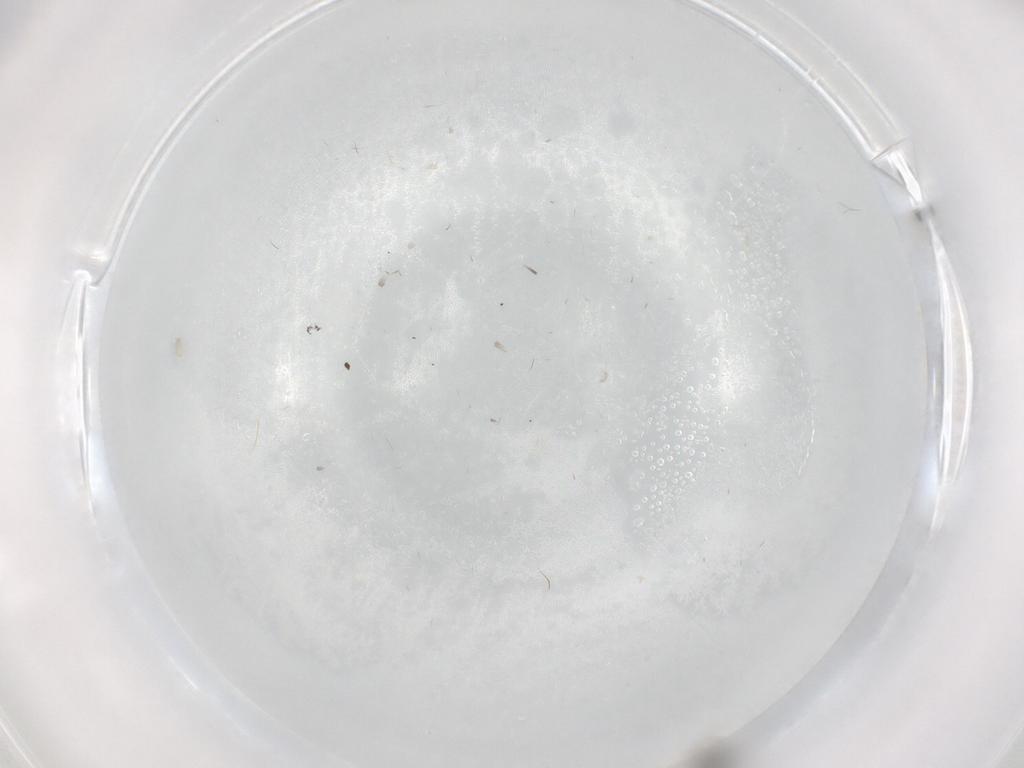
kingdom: Animalia
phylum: Arthropoda
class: Insecta
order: Diptera
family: Cecidomyiidae
